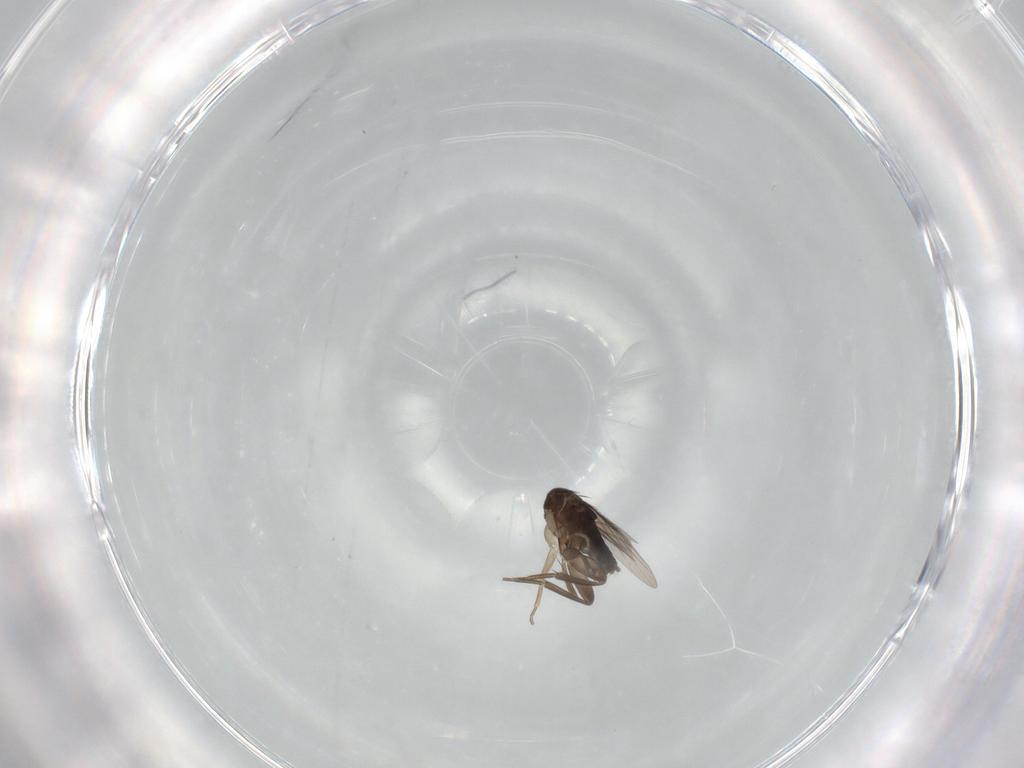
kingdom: Animalia
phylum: Arthropoda
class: Insecta
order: Diptera
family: Phoridae
